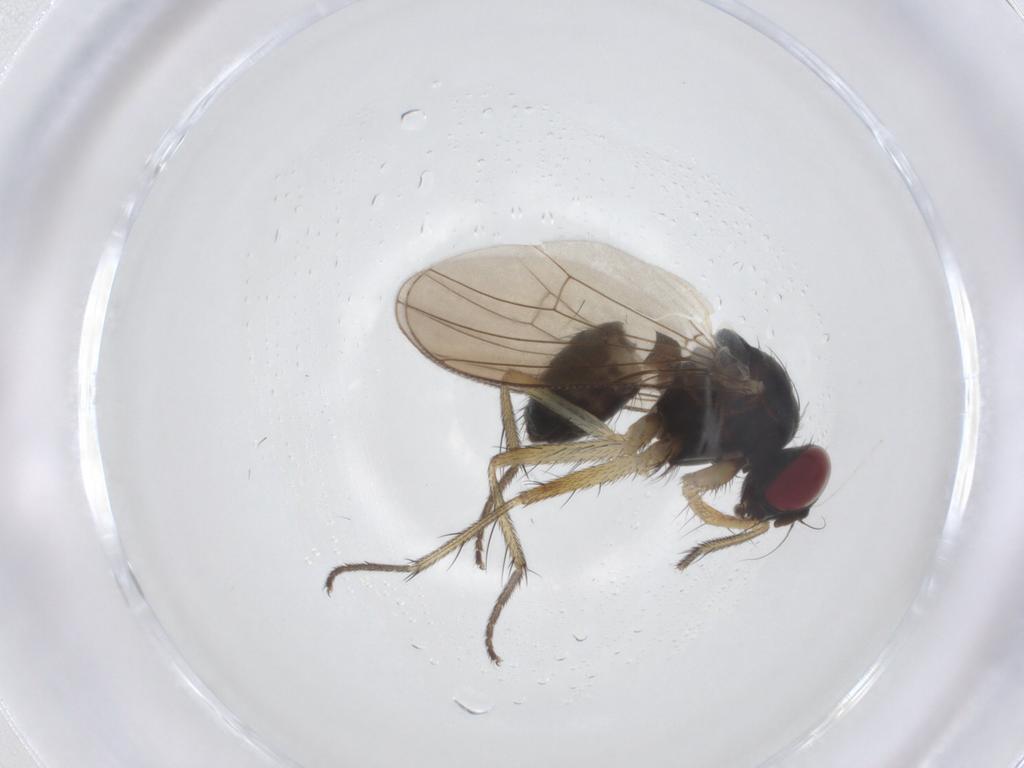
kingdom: Animalia
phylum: Arthropoda
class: Insecta
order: Diptera
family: Muscidae
